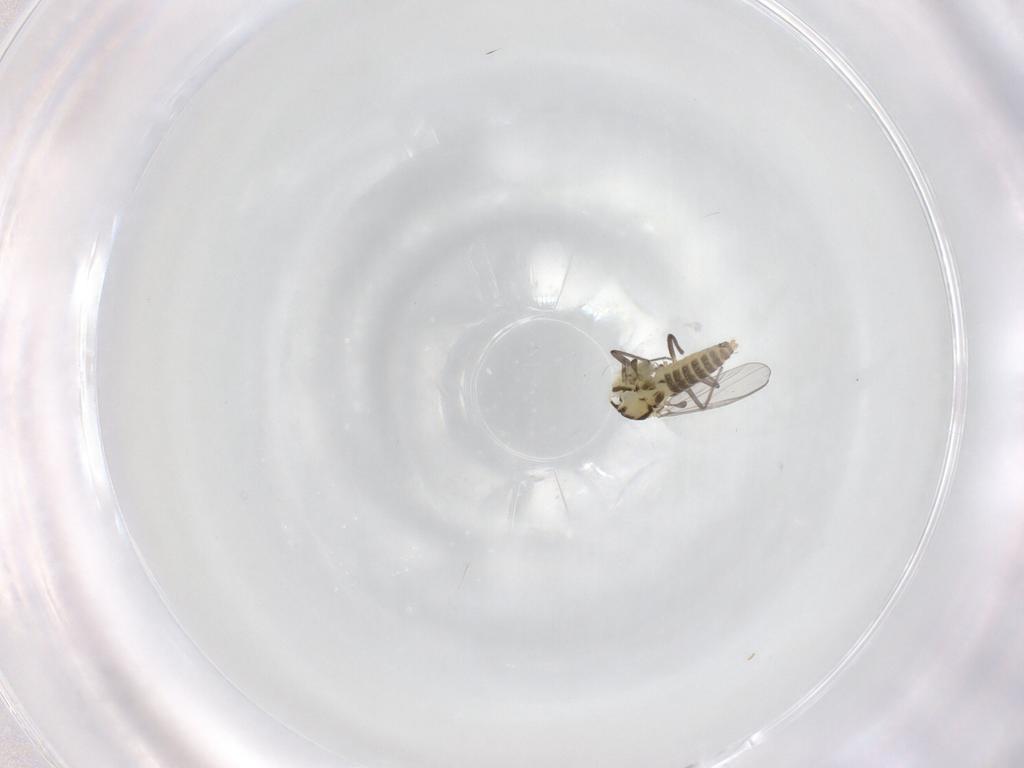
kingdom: Animalia
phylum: Arthropoda
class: Insecta
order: Diptera
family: Chironomidae
